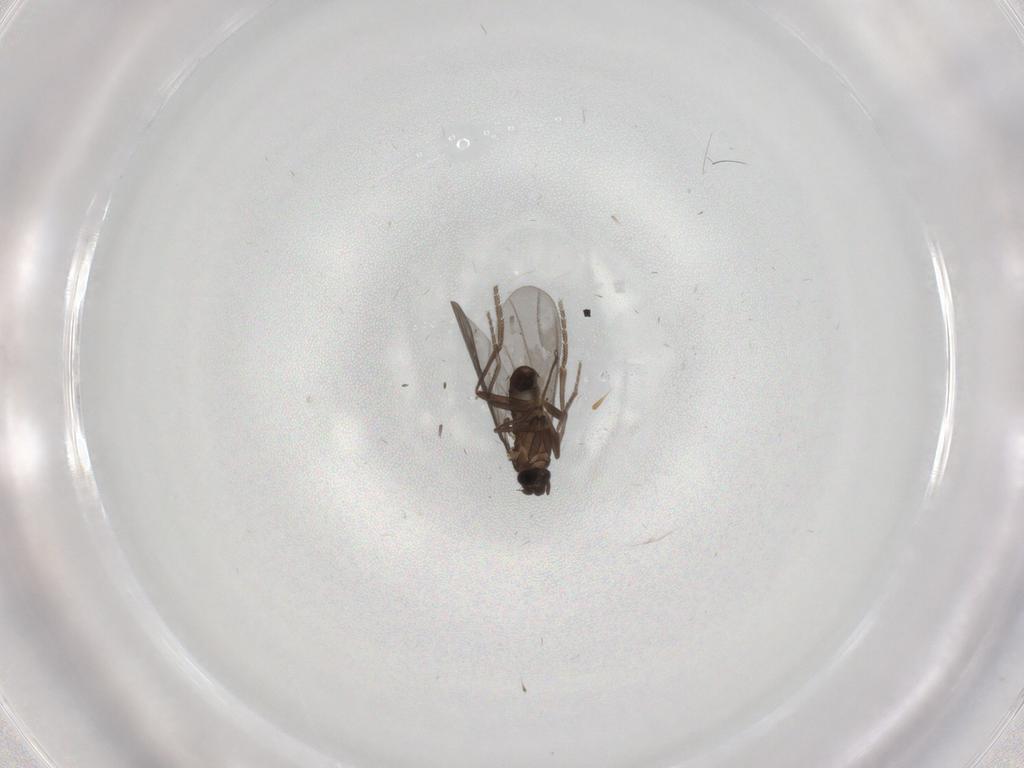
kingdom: Animalia
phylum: Arthropoda
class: Insecta
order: Diptera
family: Phoridae
